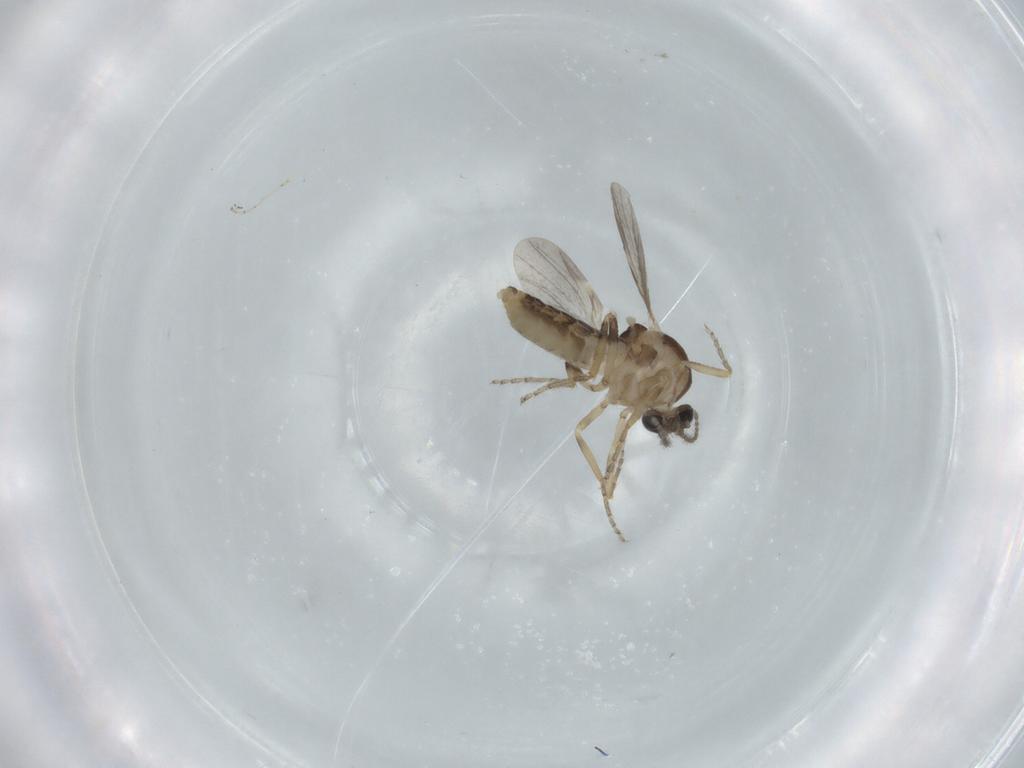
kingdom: Animalia
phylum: Arthropoda
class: Insecta
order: Diptera
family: Ceratopogonidae
